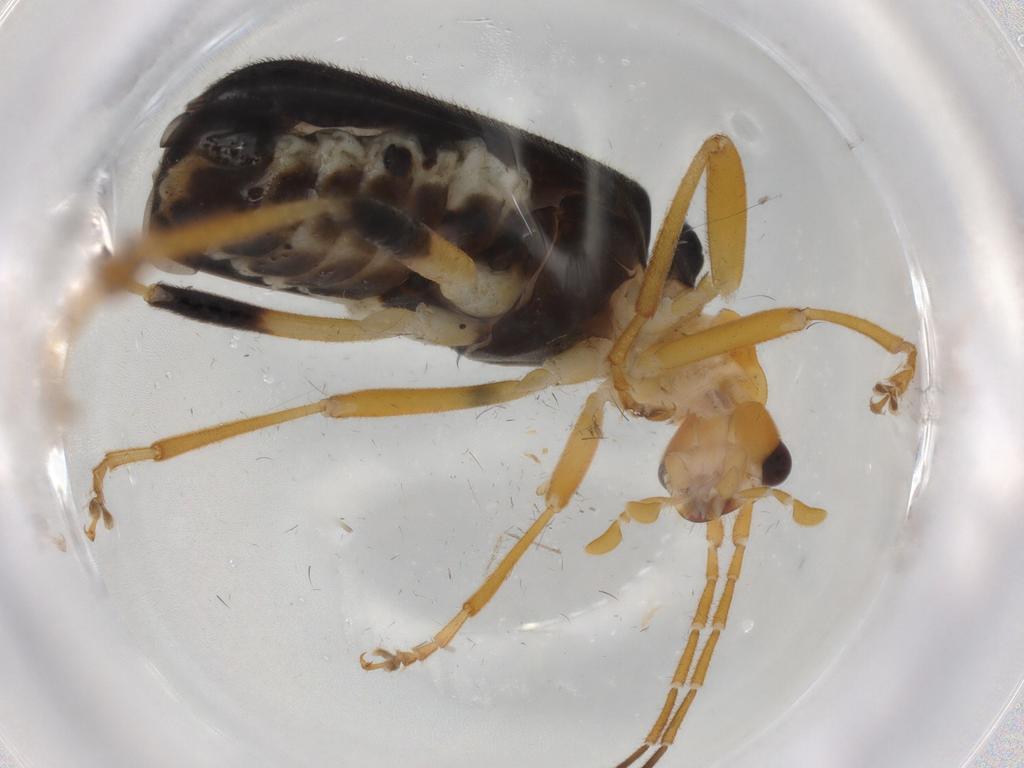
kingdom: Animalia
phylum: Arthropoda
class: Insecta
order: Coleoptera
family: Cantharidae
